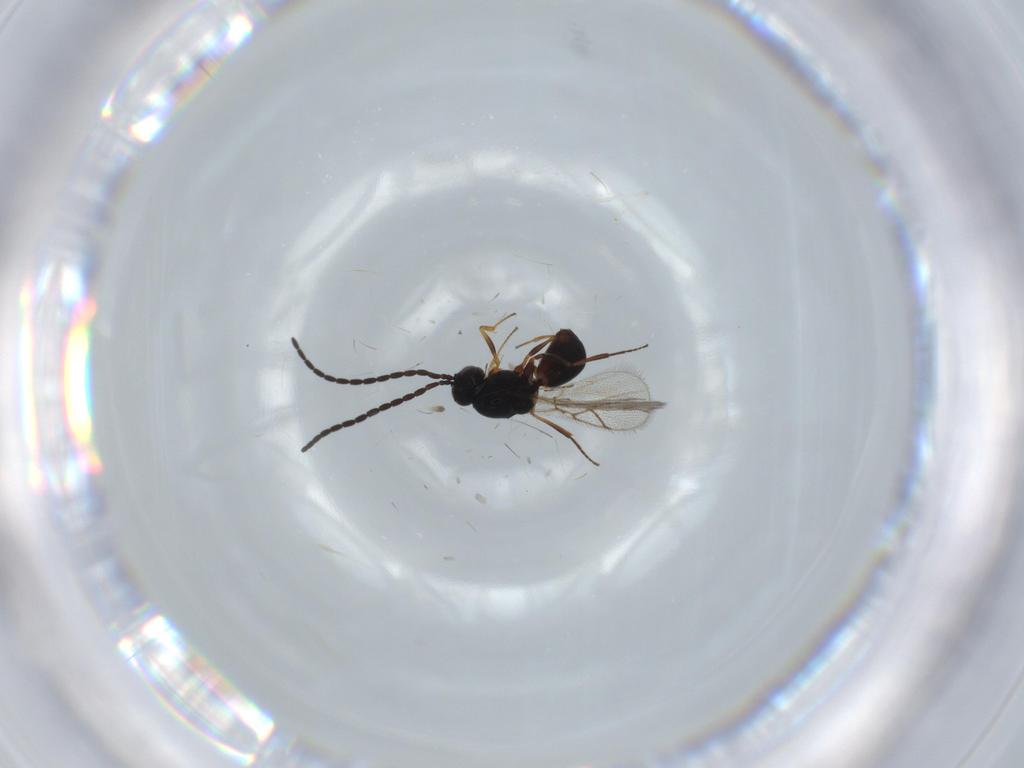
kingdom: Animalia
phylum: Arthropoda
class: Insecta
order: Hymenoptera
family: Figitidae
